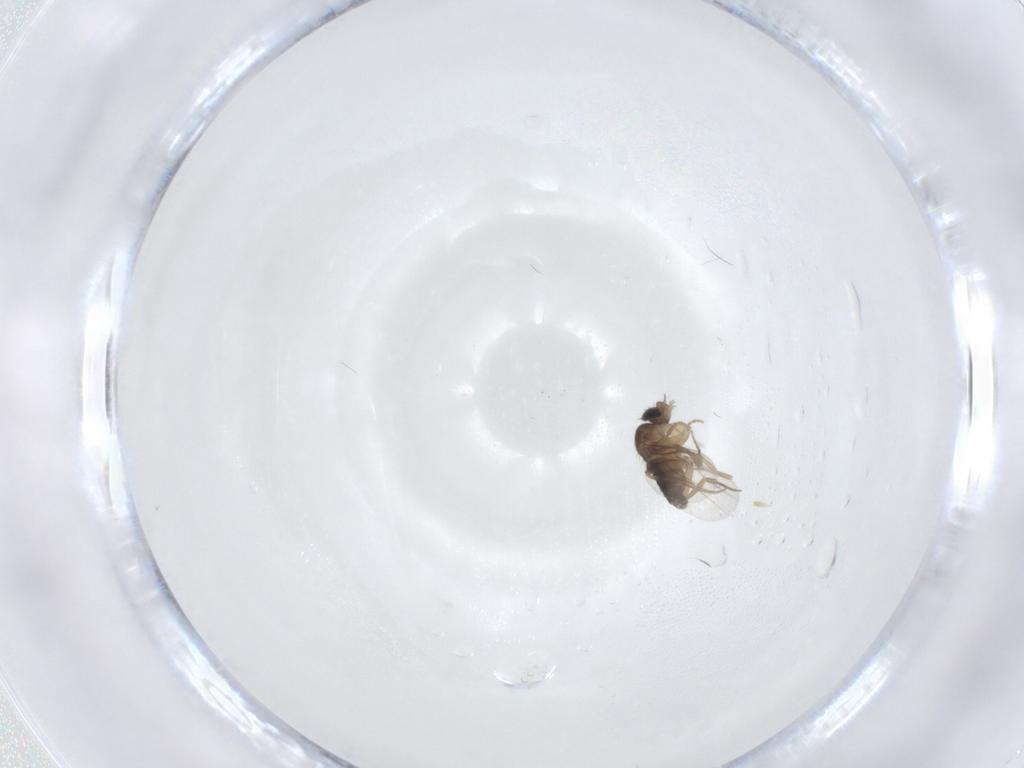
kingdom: Animalia
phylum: Arthropoda
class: Insecta
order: Diptera
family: Phoridae
